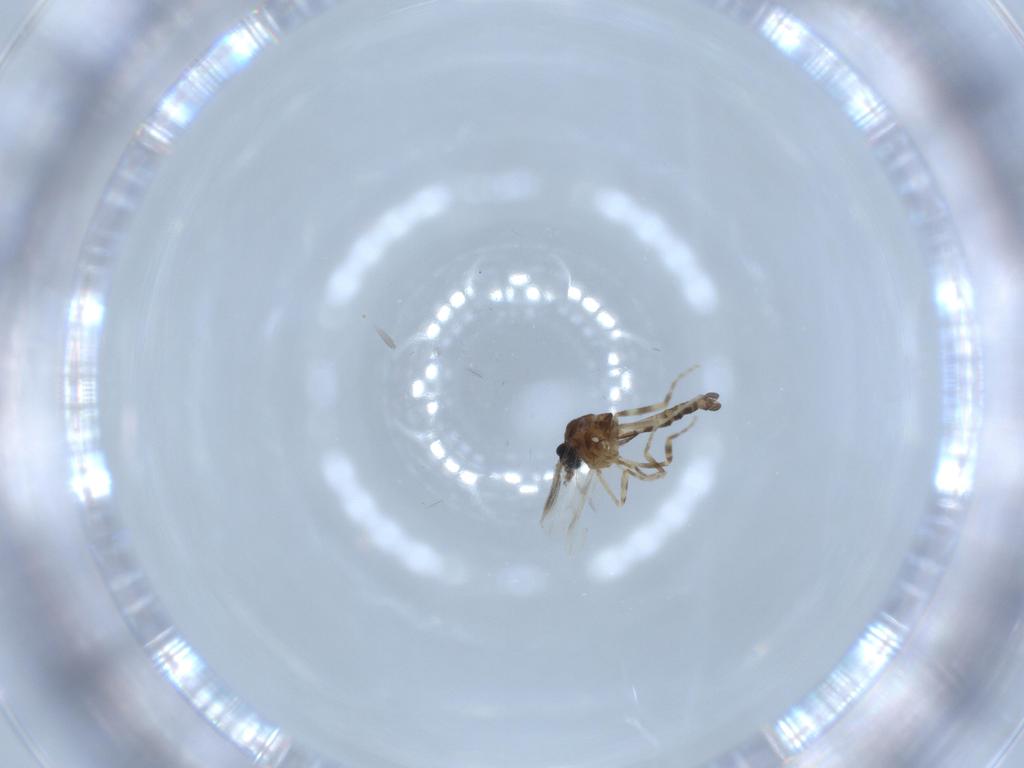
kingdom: Animalia
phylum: Arthropoda
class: Insecta
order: Diptera
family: Ceratopogonidae
